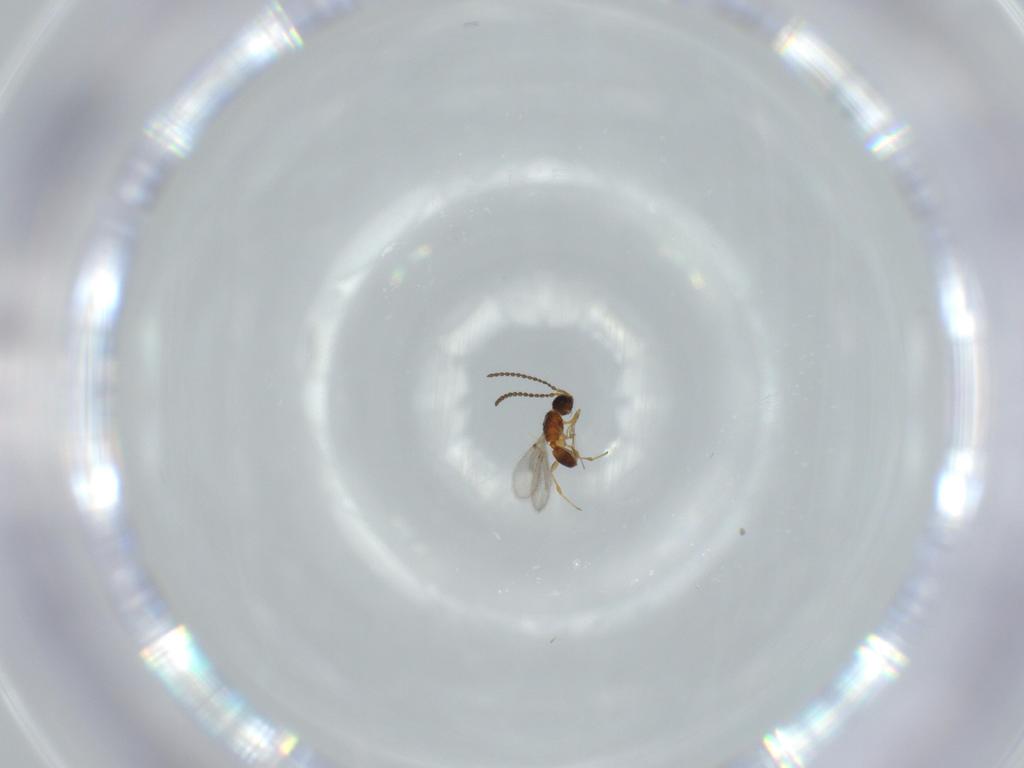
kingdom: Animalia
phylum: Arthropoda
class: Insecta
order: Hymenoptera
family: Diapriidae
